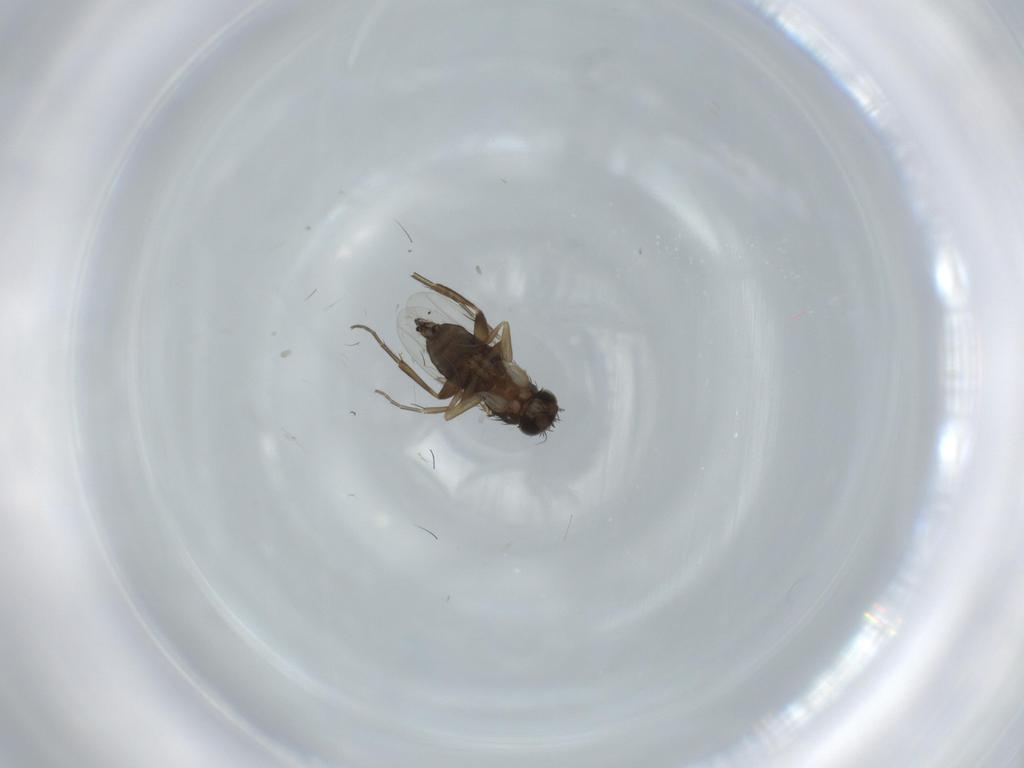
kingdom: Animalia
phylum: Arthropoda
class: Insecta
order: Diptera
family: Phoridae
